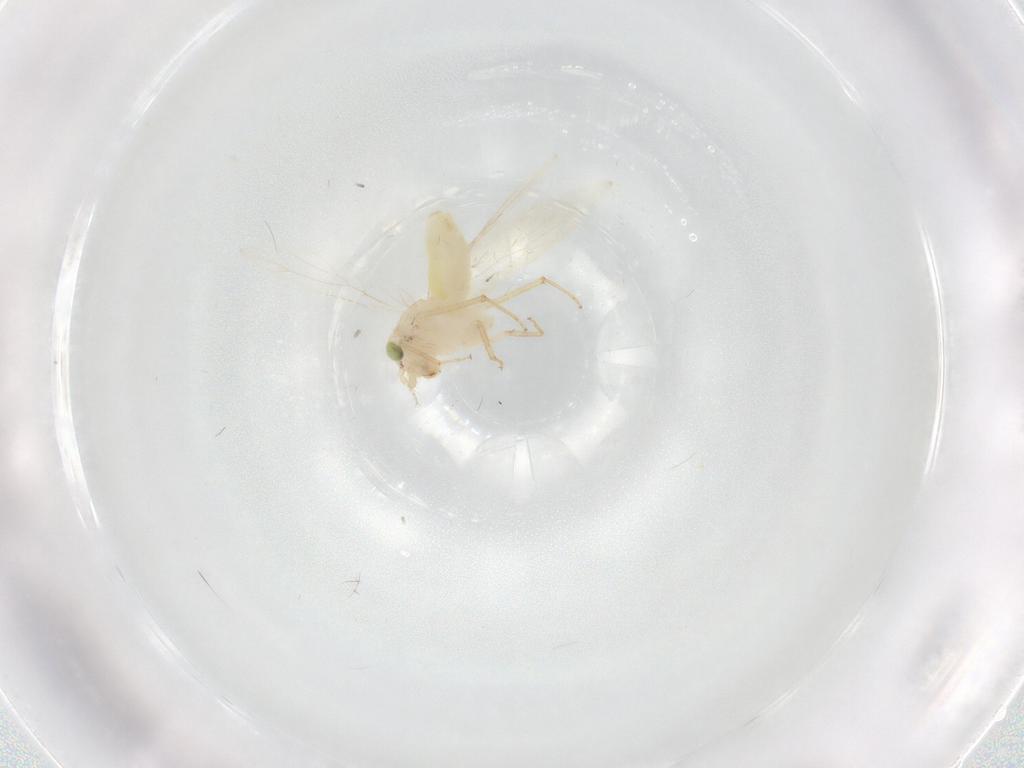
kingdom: Animalia
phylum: Arthropoda
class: Insecta
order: Psocodea
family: Lepidopsocidae
